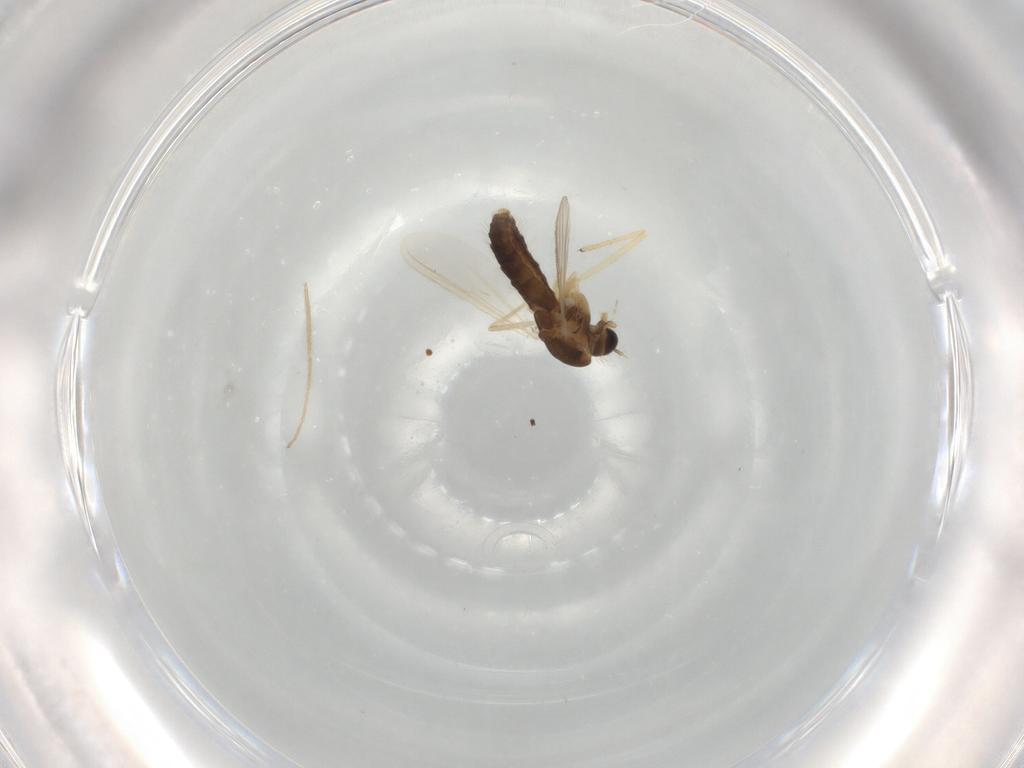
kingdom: Animalia
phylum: Arthropoda
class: Insecta
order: Diptera
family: Chironomidae
